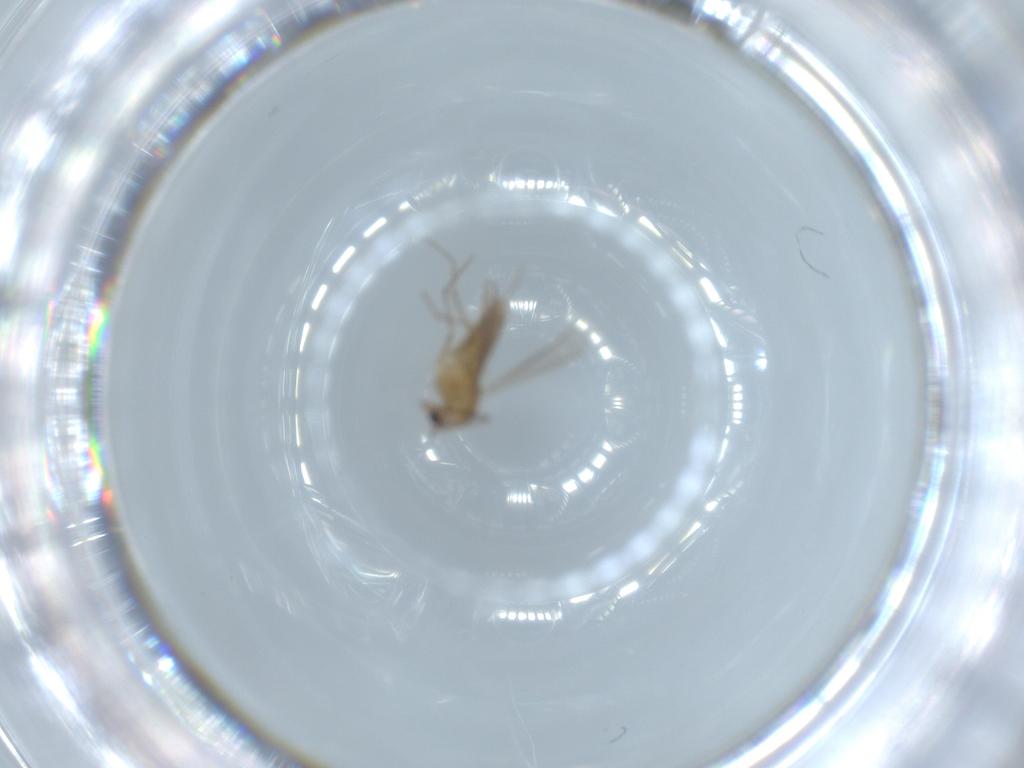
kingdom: Animalia
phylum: Arthropoda
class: Insecta
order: Diptera
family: Chironomidae
